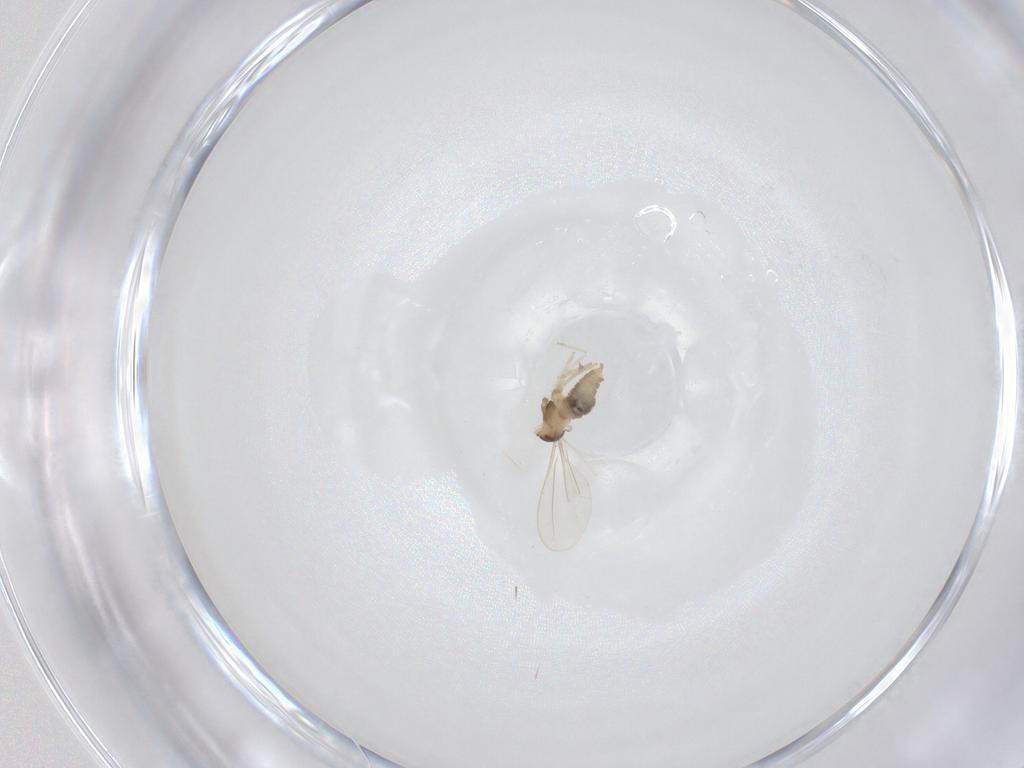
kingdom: Animalia
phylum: Arthropoda
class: Insecta
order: Diptera
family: Cecidomyiidae
